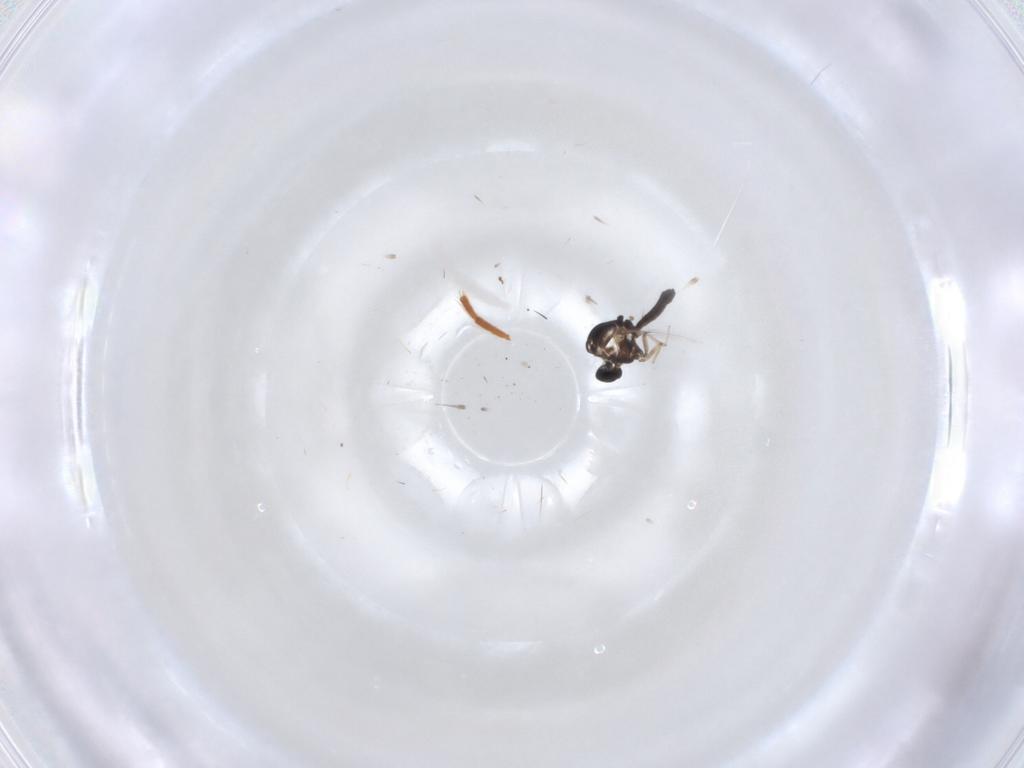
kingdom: Animalia
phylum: Arthropoda
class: Insecta
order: Diptera
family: Ceratopogonidae
